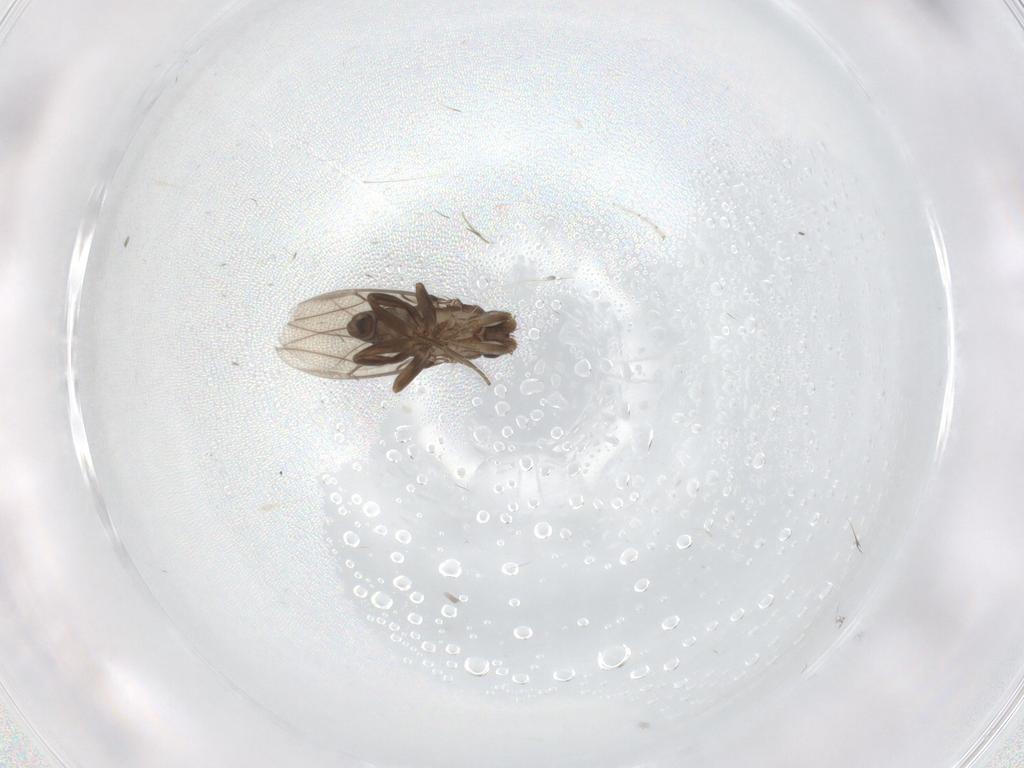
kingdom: Animalia
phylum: Arthropoda
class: Insecta
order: Diptera
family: Phoridae
